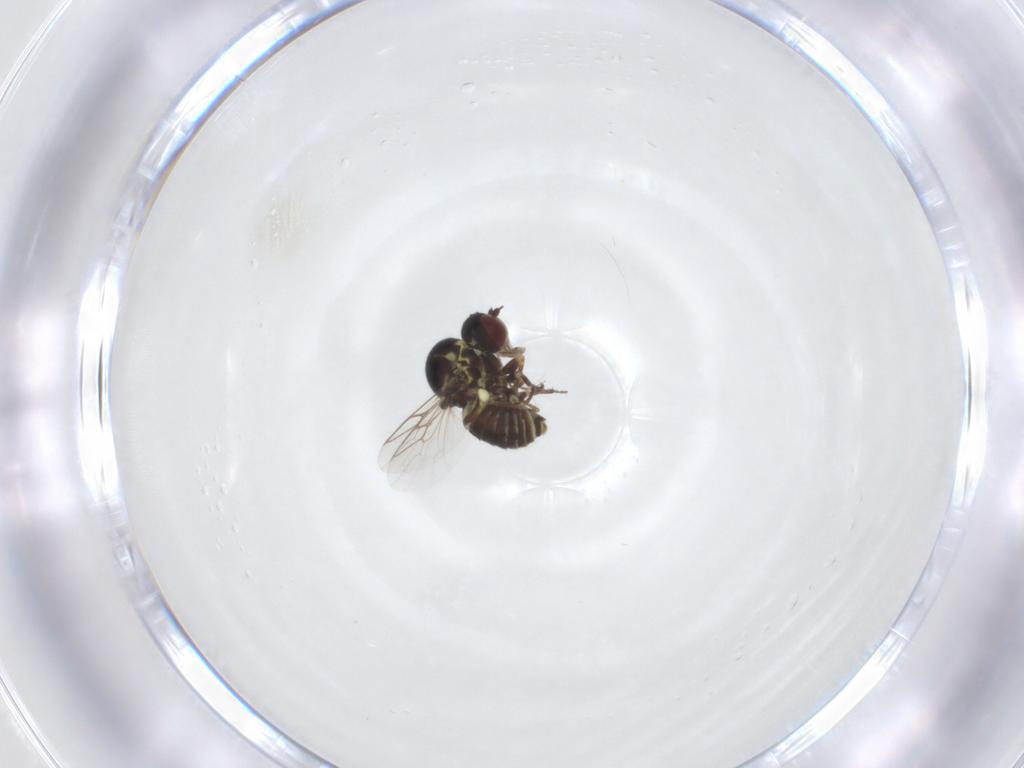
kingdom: Animalia
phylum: Arthropoda
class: Insecta
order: Diptera
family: Mythicomyiidae
